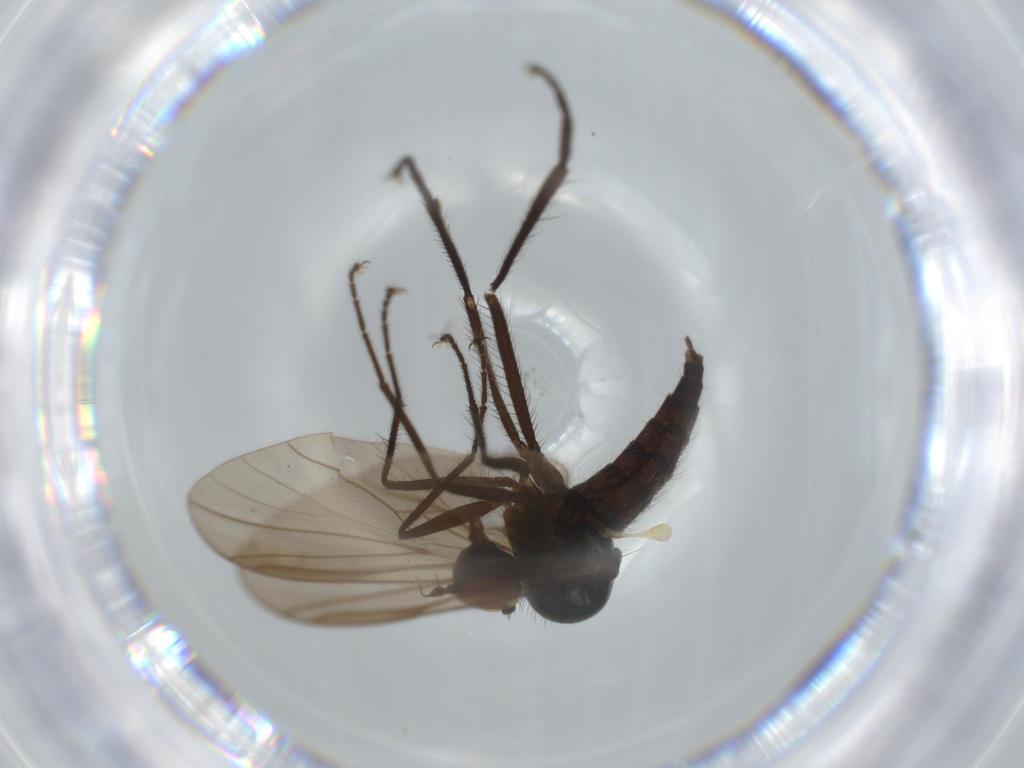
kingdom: Animalia
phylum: Arthropoda
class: Insecta
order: Diptera
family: Hybotidae
